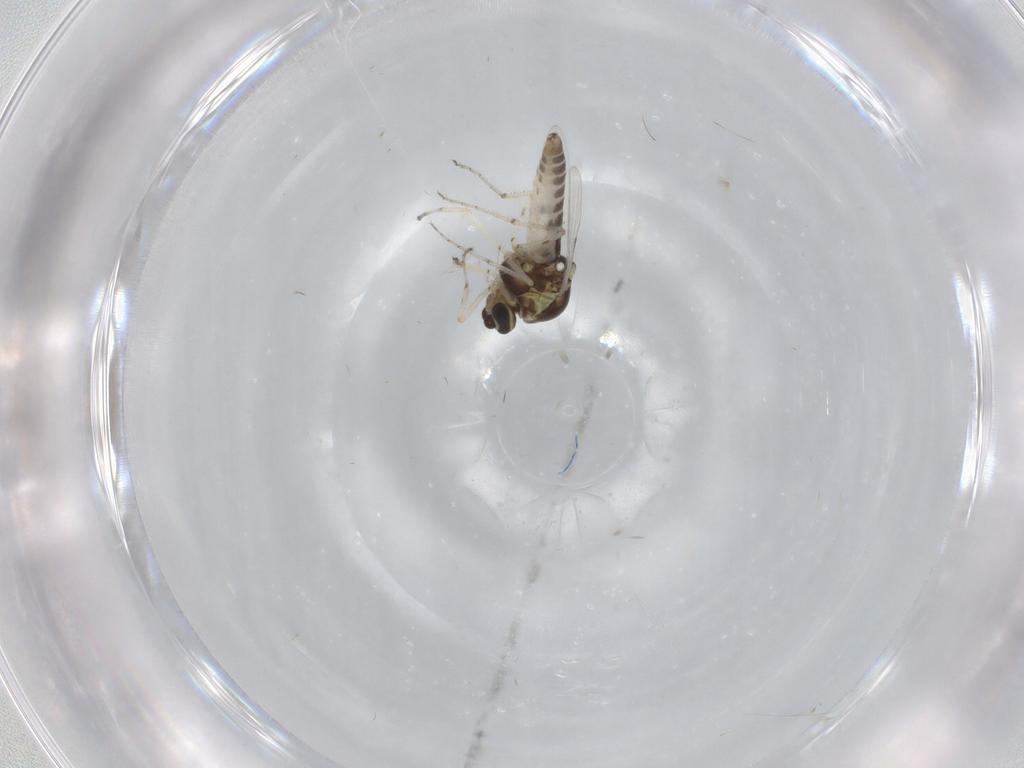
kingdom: Animalia
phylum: Arthropoda
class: Insecta
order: Diptera
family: Ceratopogonidae
